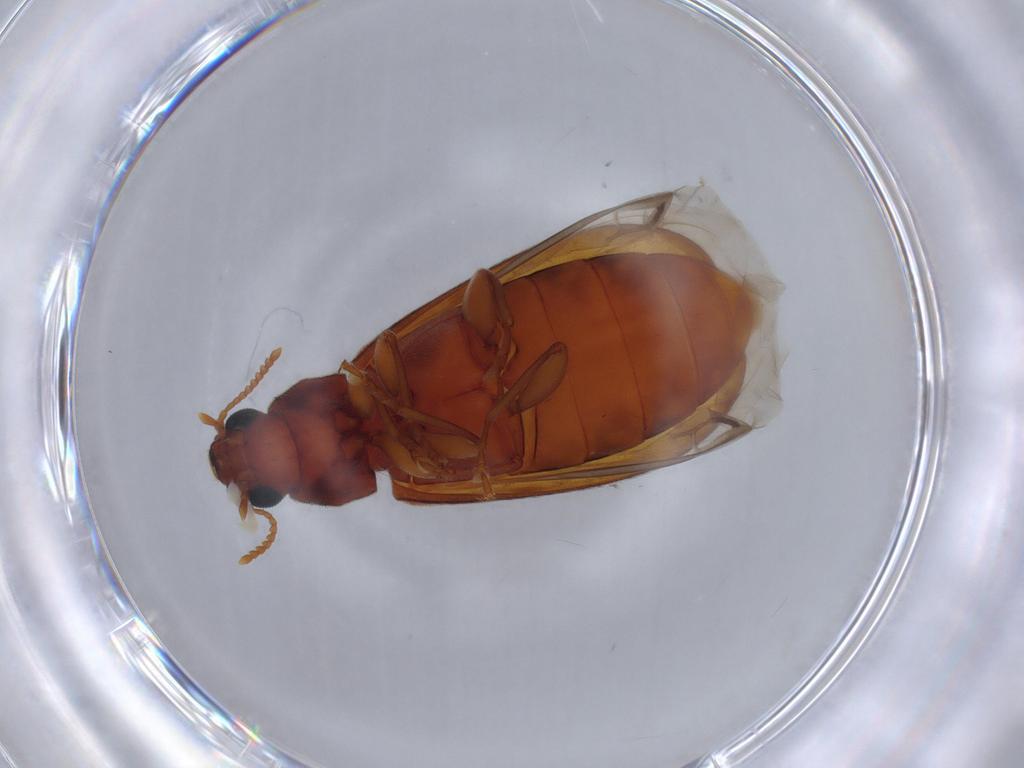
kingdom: Animalia
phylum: Arthropoda
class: Insecta
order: Coleoptera
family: Mycteridae
